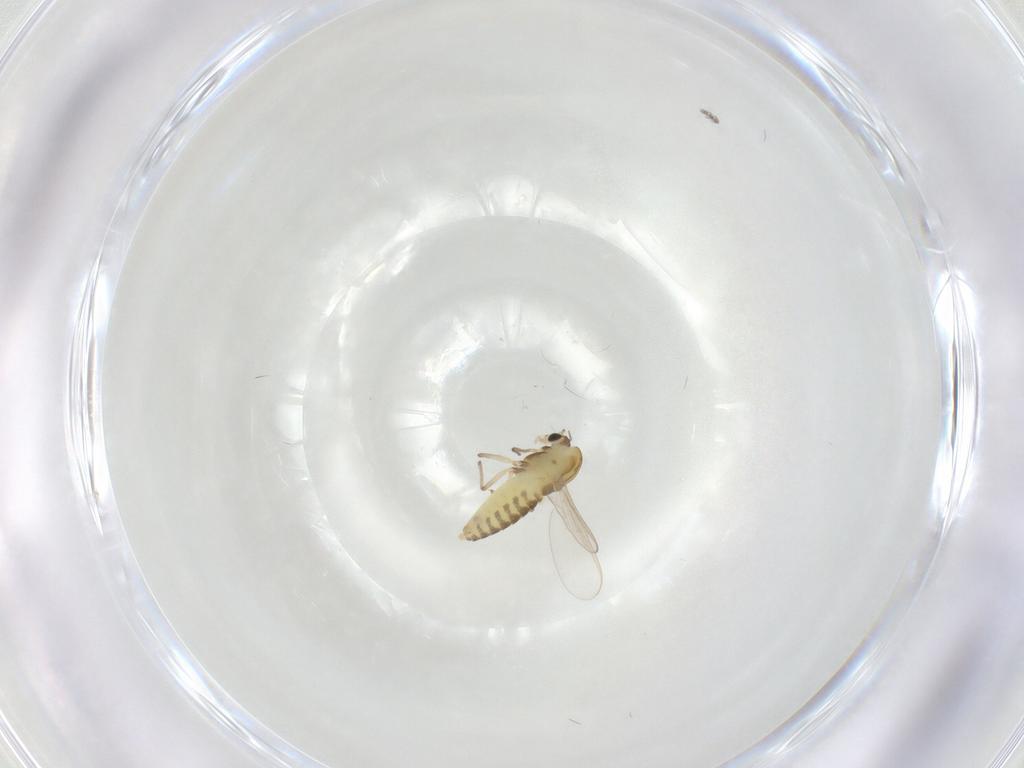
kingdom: Animalia
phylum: Arthropoda
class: Insecta
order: Diptera
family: Chironomidae
